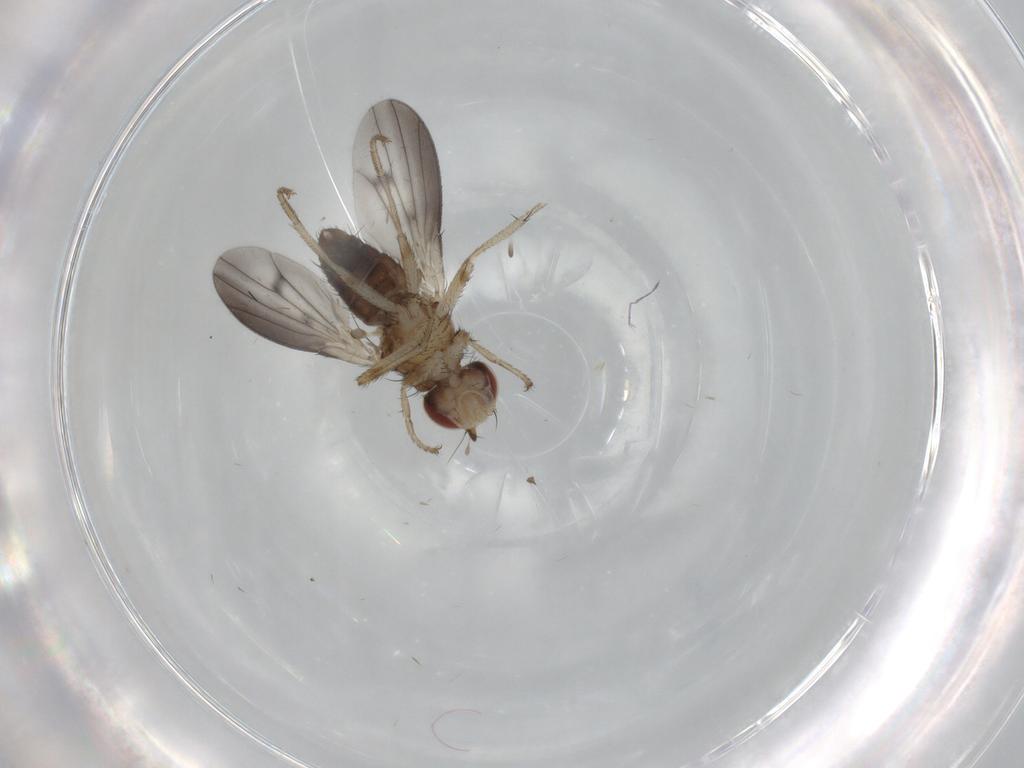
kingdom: Animalia
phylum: Arthropoda
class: Insecta
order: Diptera
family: Heleomyzidae
